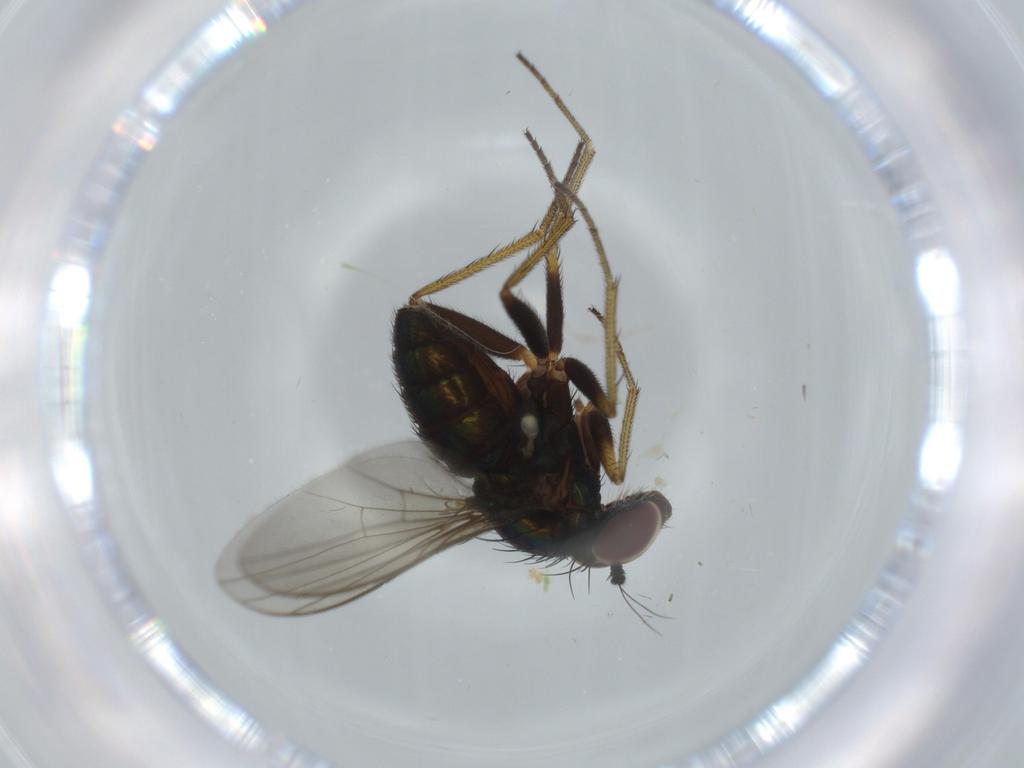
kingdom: Animalia
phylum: Arthropoda
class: Insecta
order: Diptera
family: Dolichopodidae
